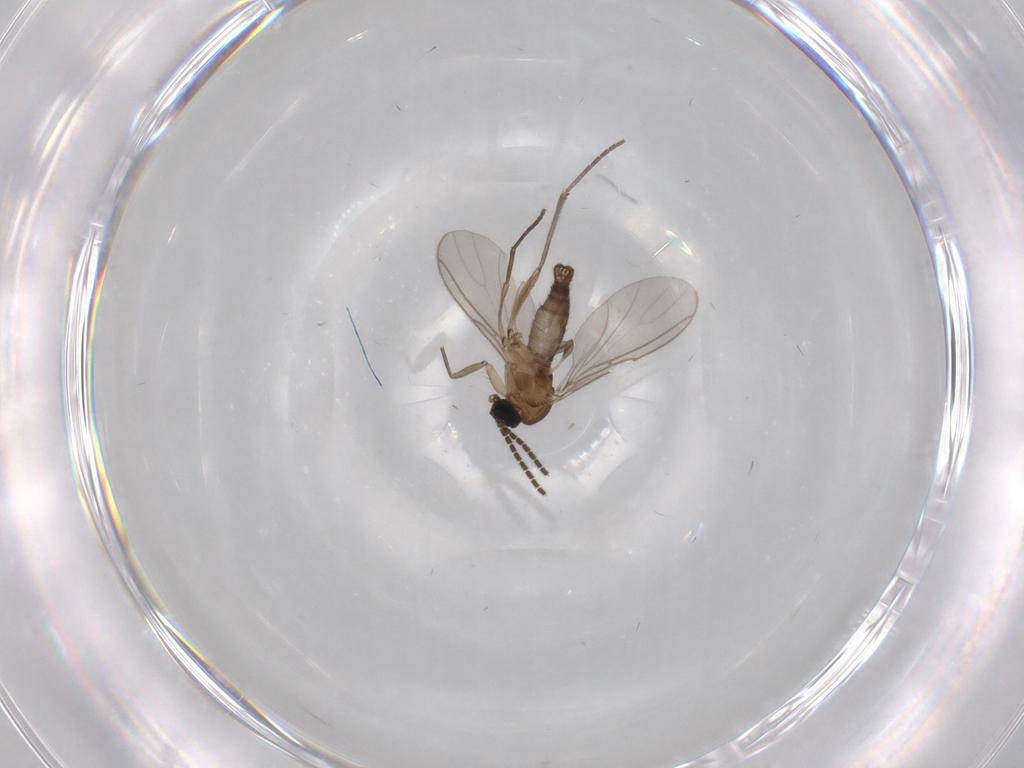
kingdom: Animalia
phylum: Arthropoda
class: Insecta
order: Diptera
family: Sciaridae
